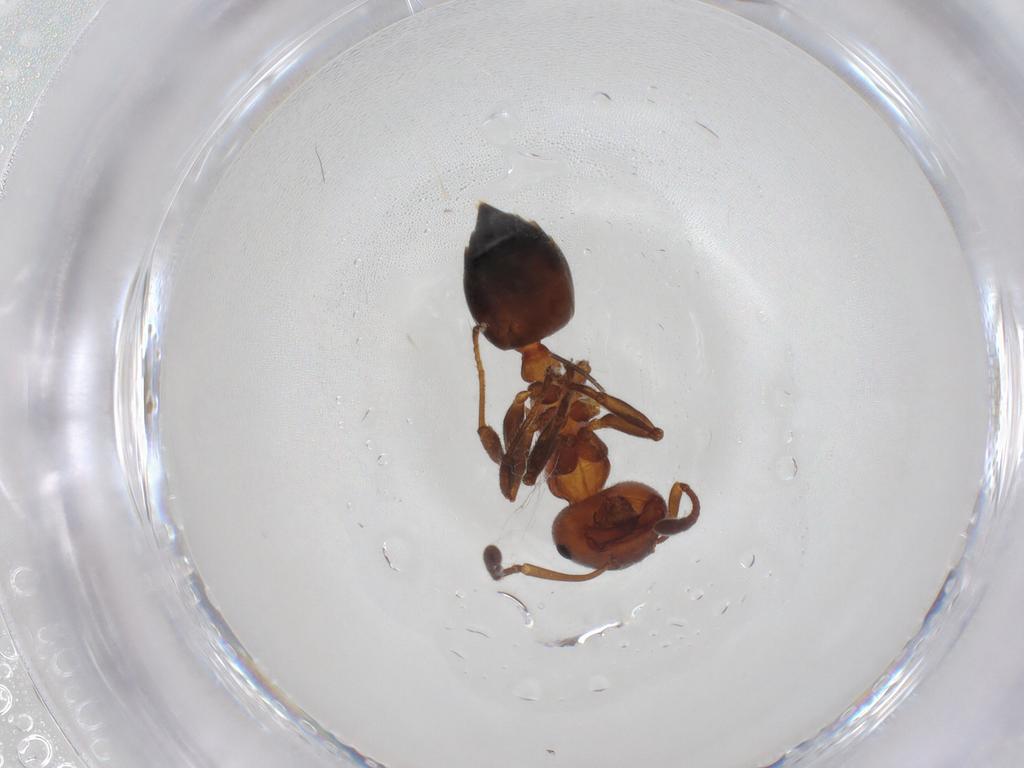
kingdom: Animalia
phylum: Arthropoda
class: Insecta
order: Hymenoptera
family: Formicidae
